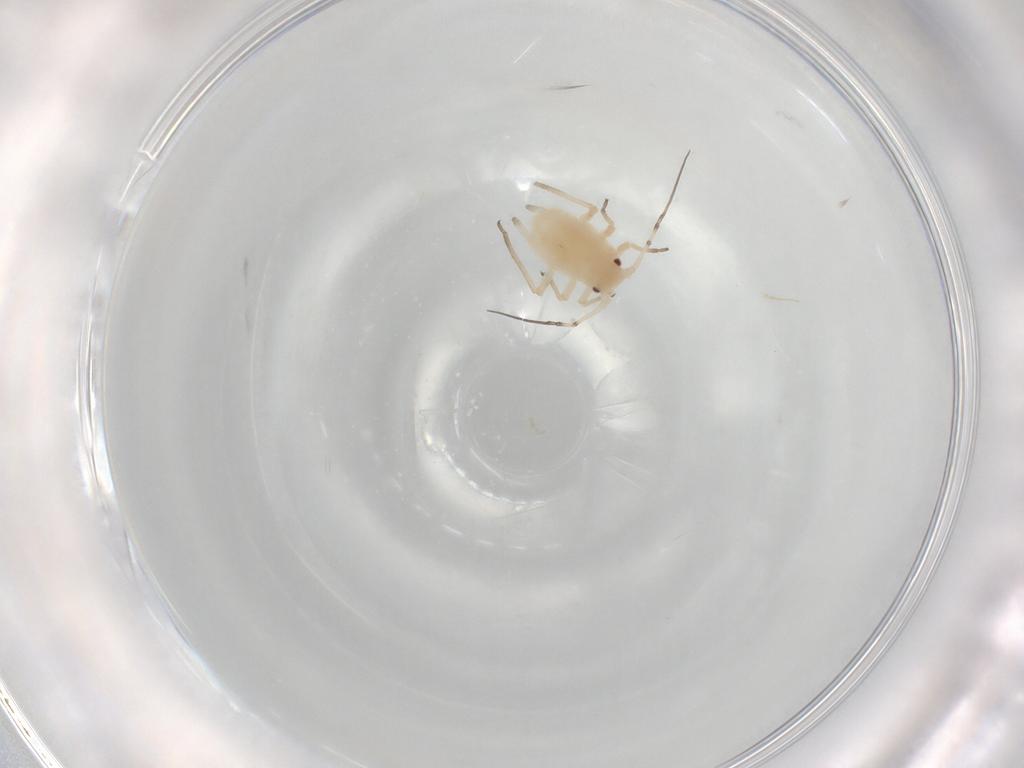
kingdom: Animalia
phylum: Arthropoda
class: Insecta
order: Hemiptera
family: Aphididae
